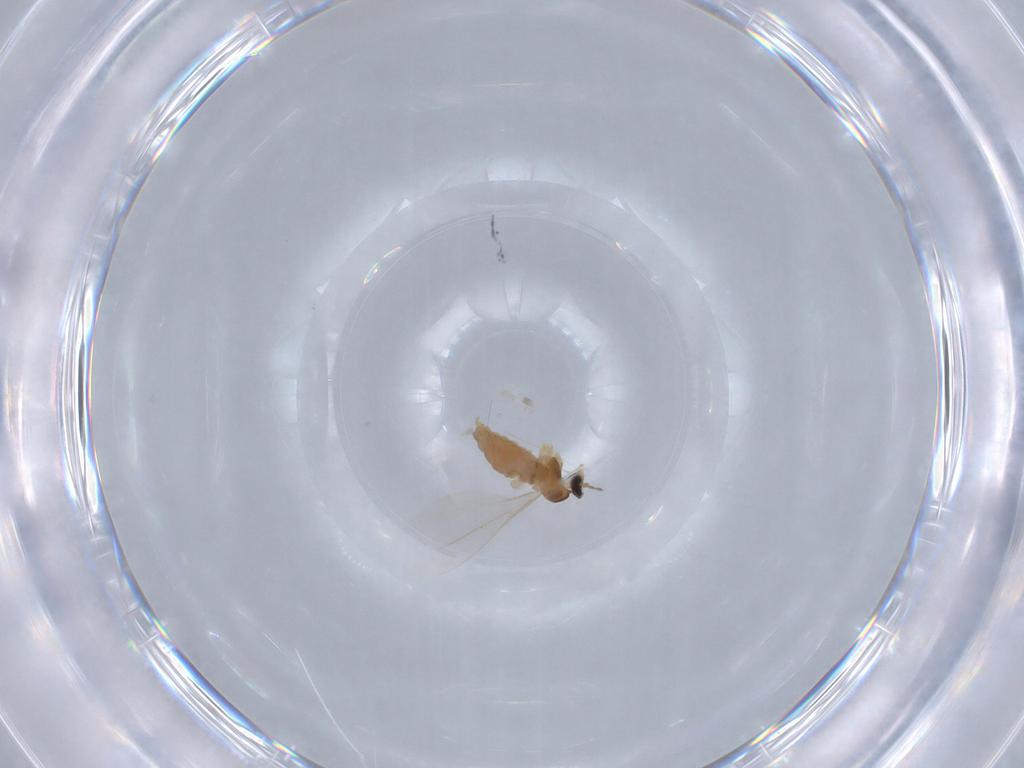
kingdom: Animalia
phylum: Arthropoda
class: Insecta
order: Diptera
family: Cecidomyiidae
